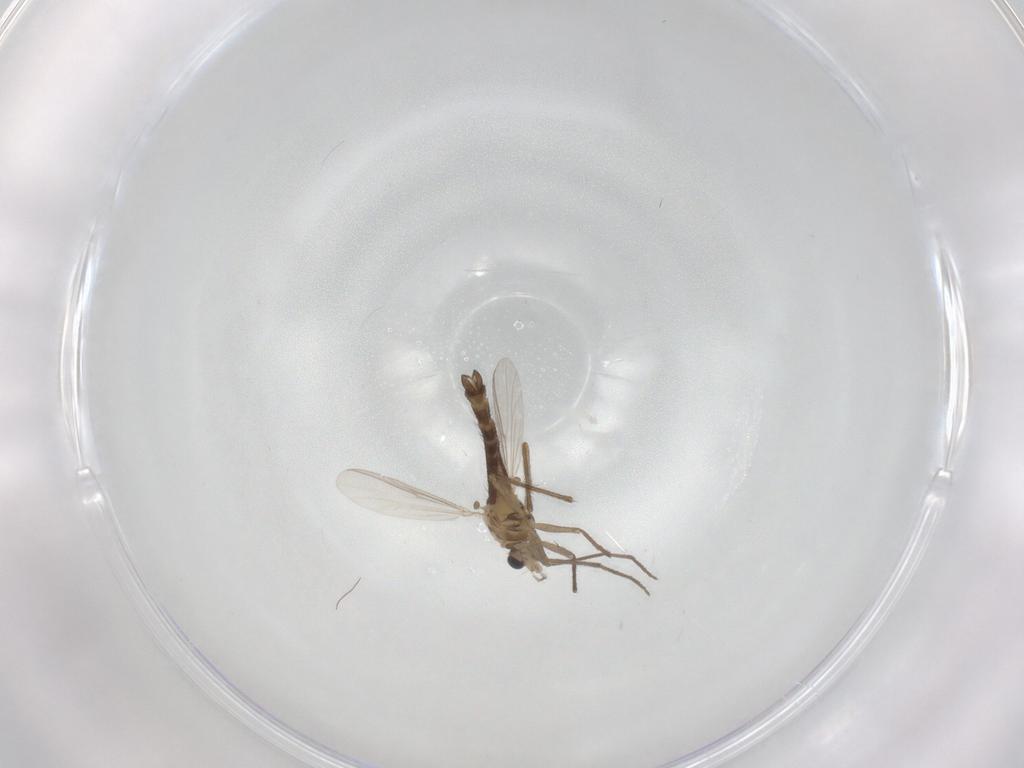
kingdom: Animalia
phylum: Arthropoda
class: Insecta
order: Diptera
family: Chironomidae
